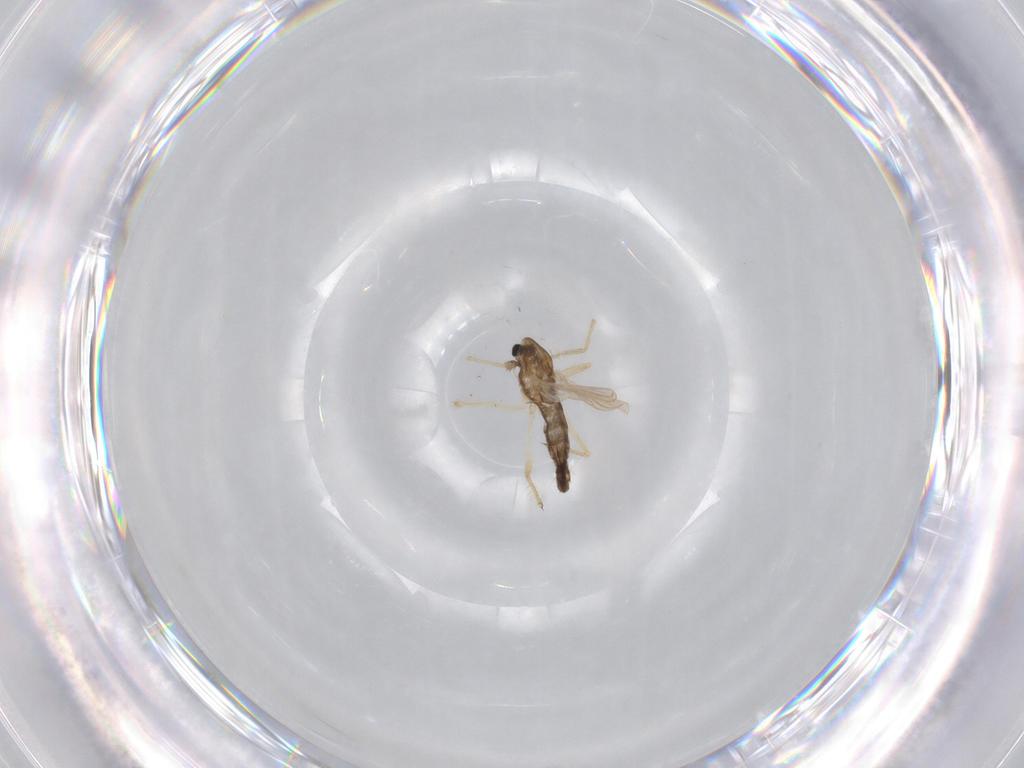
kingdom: Animalia
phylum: Arthropoda
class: Insecta
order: Diptera
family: Chironomidae
